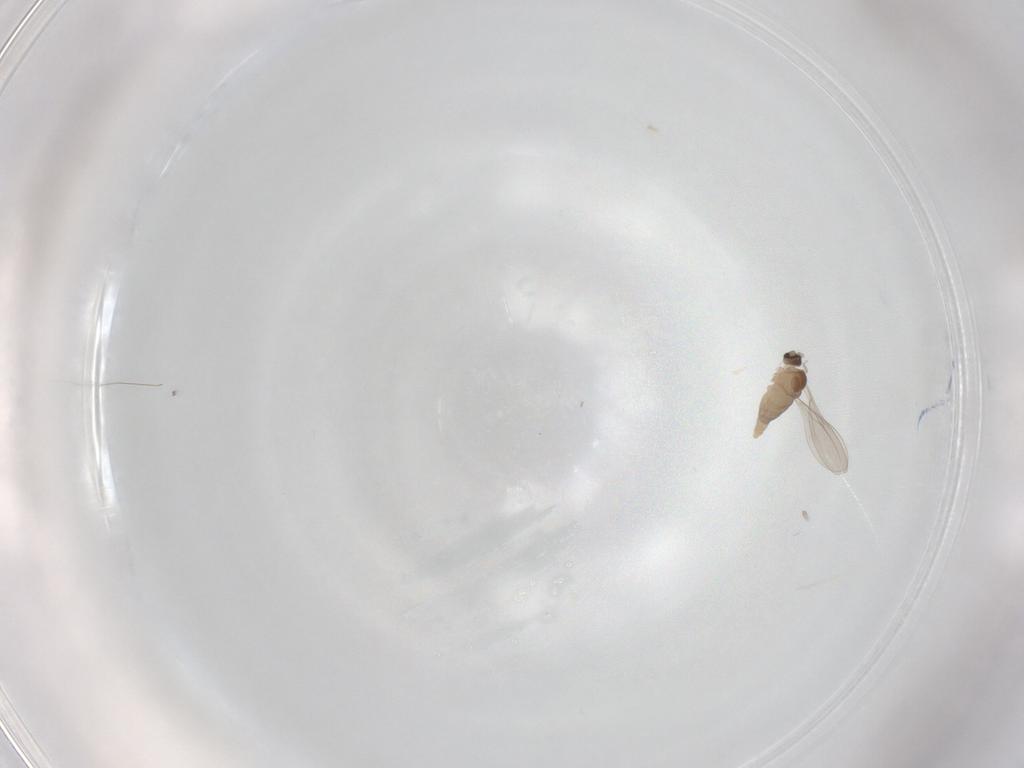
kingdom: Animalia
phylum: Arthropoda
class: Insecta
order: Diptera
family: Cecidomyiidae
